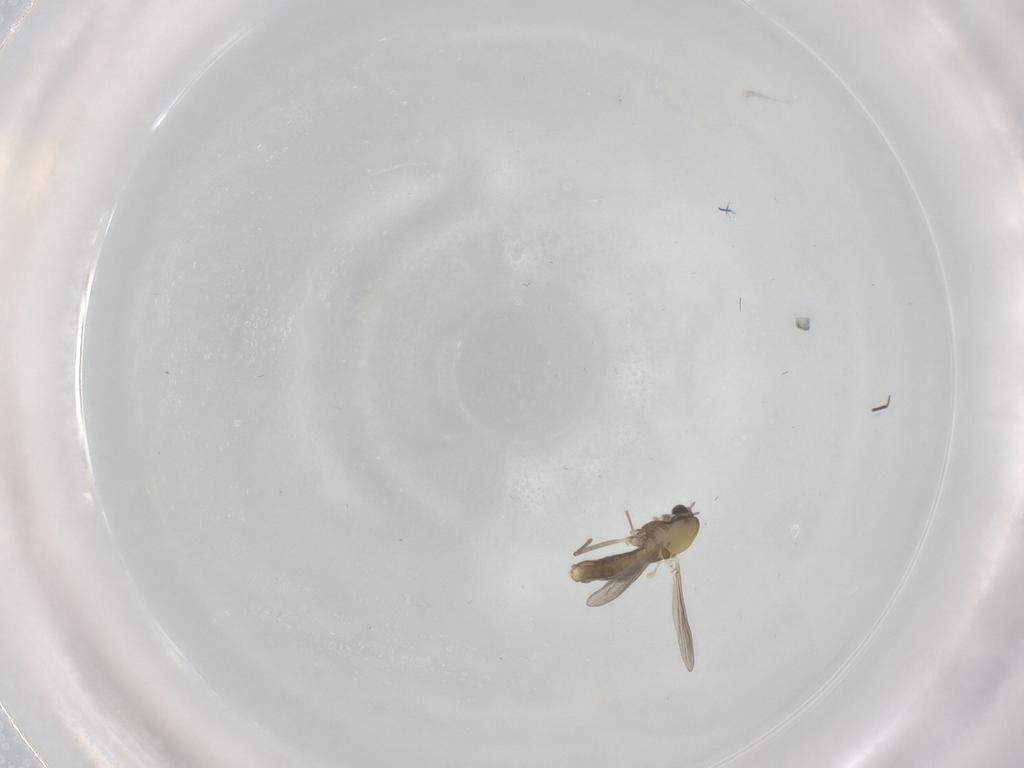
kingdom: Animalia
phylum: Arthropoda
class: Insecta
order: Diptera
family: Chironomidae
